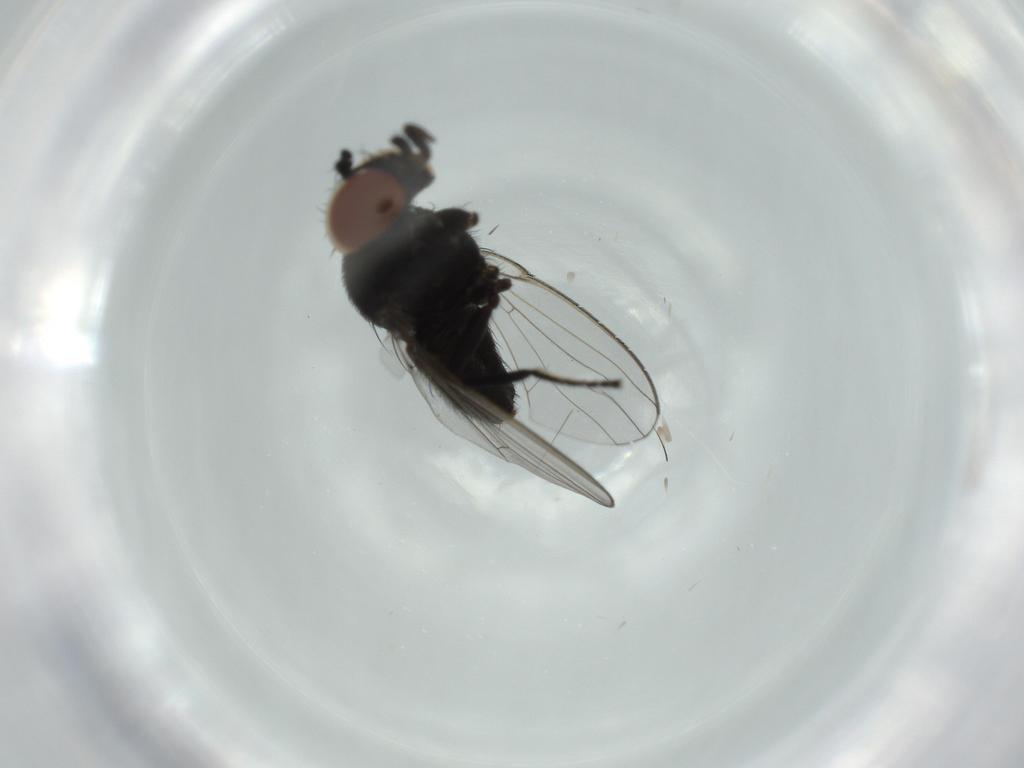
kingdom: Animalia
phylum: Arthropoda
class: Insecta
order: Diptera
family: Milichiidae
